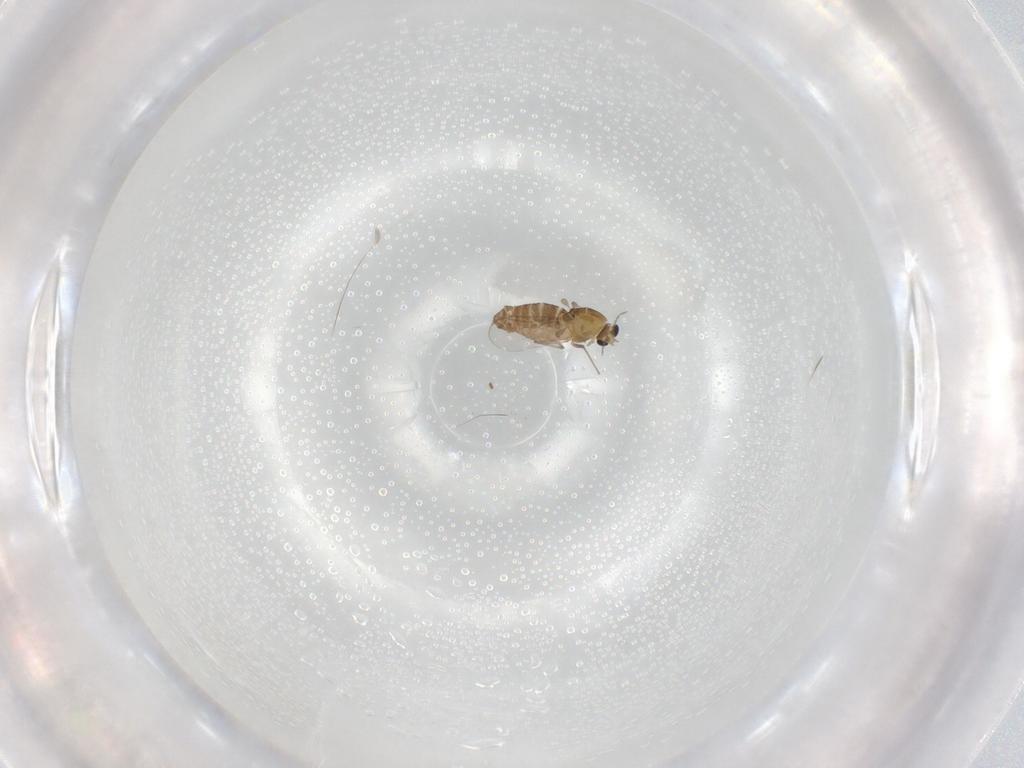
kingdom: Animalia
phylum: Arthropoda
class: Insecta
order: Diptera
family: Chironomidae
